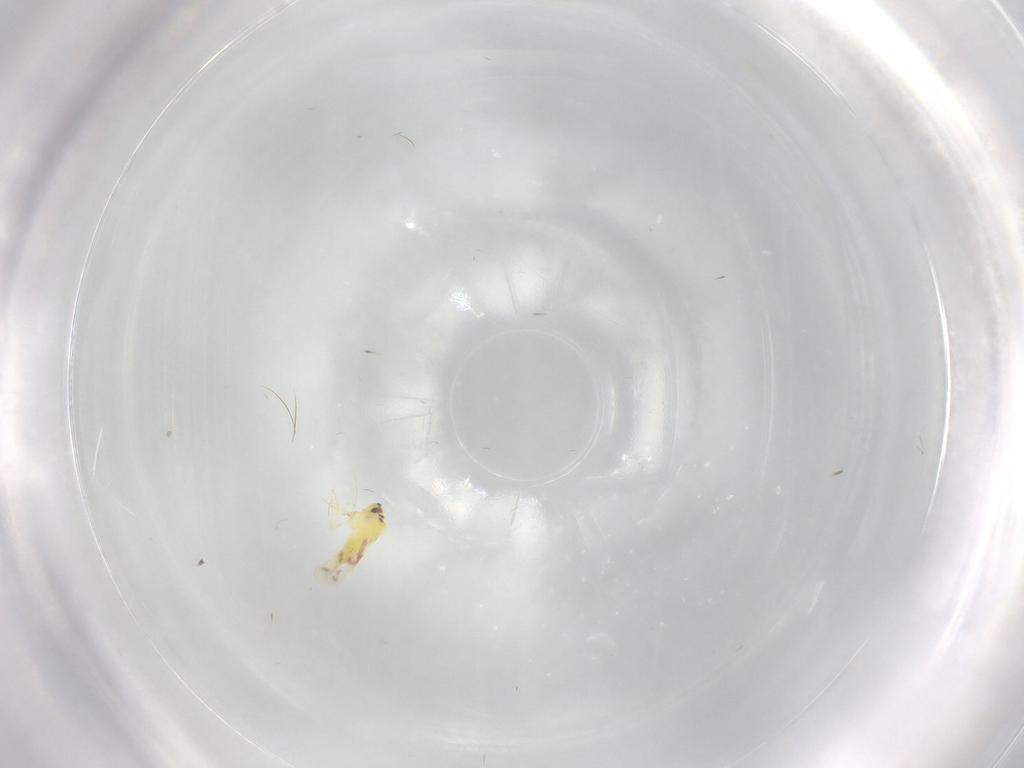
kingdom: Animalia
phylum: Arthropoda
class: Insecta
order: Hemiptera
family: Aleyrodidae
